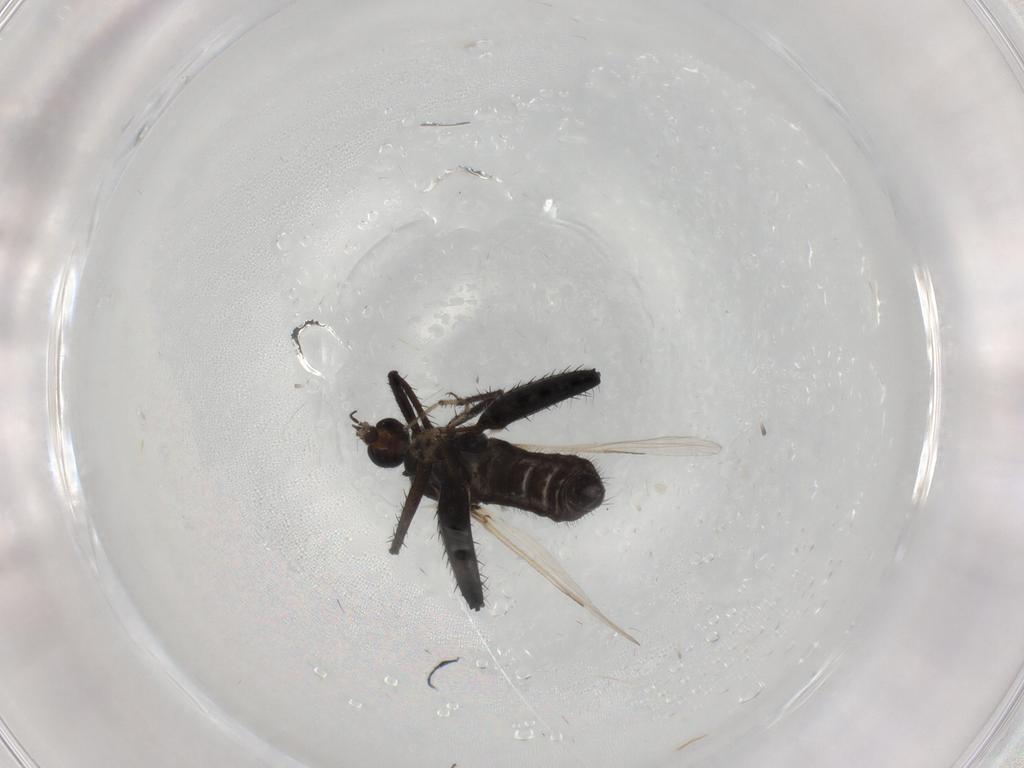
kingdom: Animalia
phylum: Arthropoda
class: Insecta
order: Diptera
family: Ceratopogonidae
